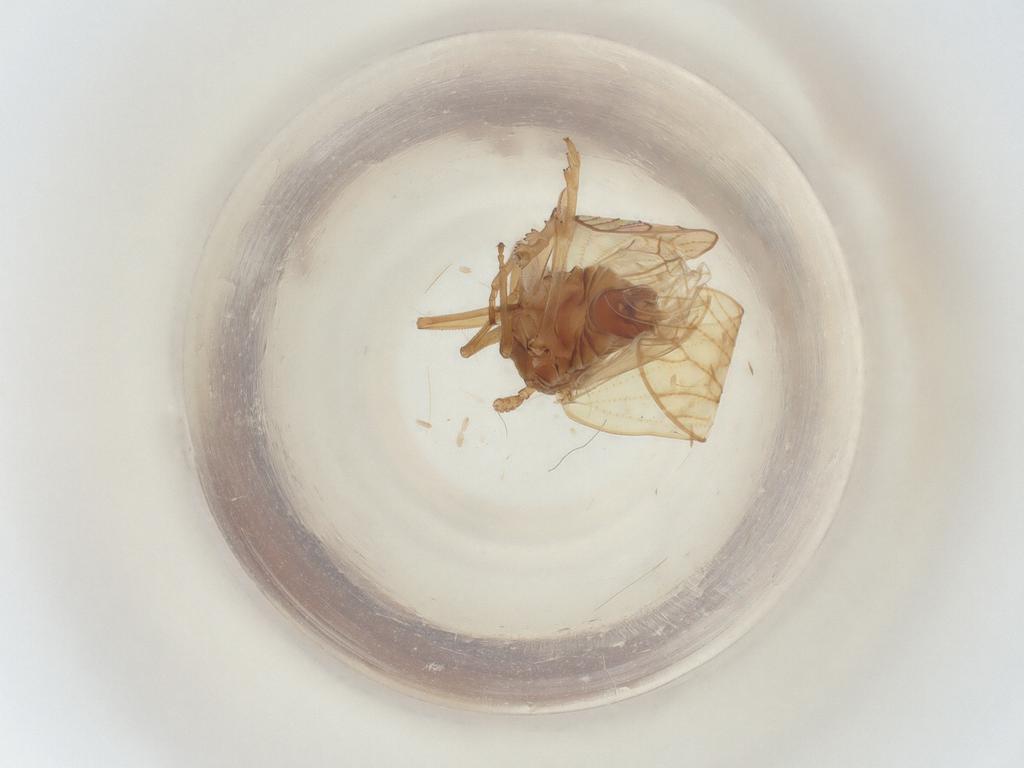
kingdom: Animalia
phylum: Arthropoda
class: Insecta
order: Hemiptera
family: Delphacidae
